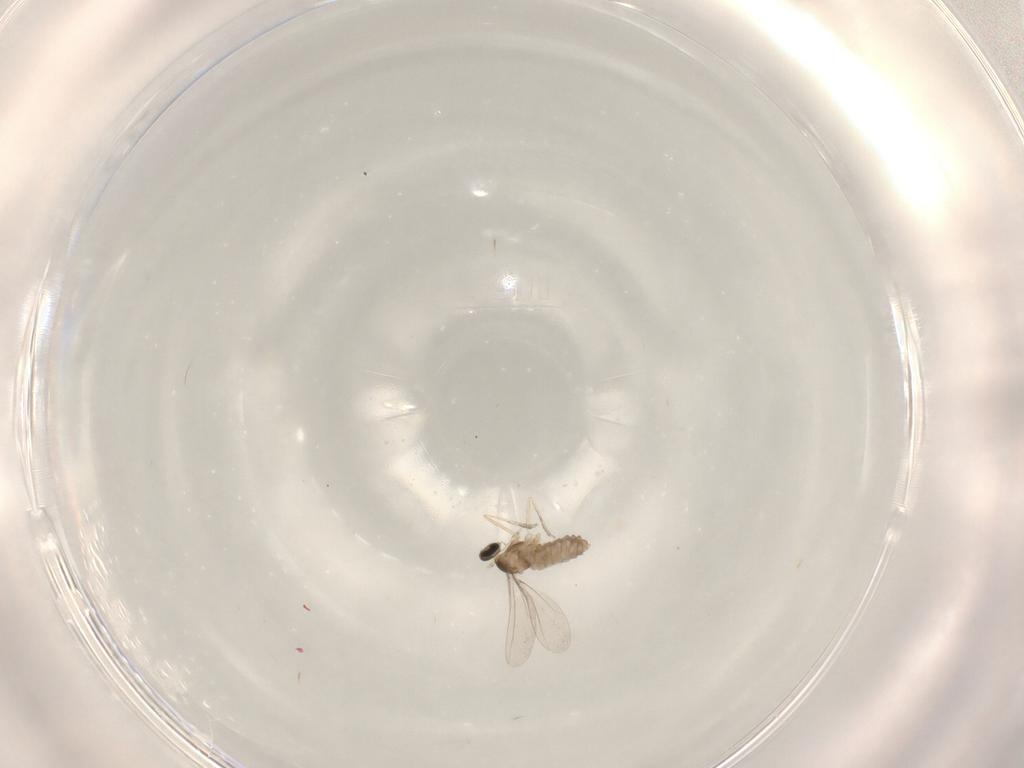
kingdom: Animalia
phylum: Arthropoda
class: Insecta
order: Diptera
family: Cecidomyiidae
